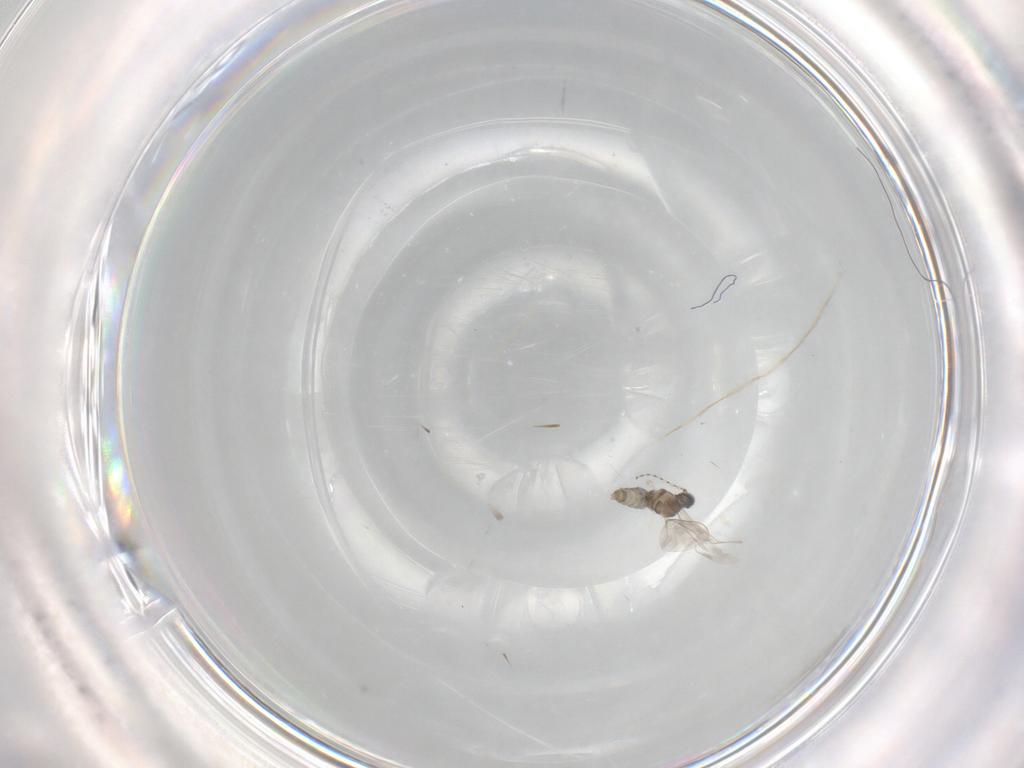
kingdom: Animalia
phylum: Arthropoda
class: Insecta
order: Diptera
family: Cecidomyiidae
